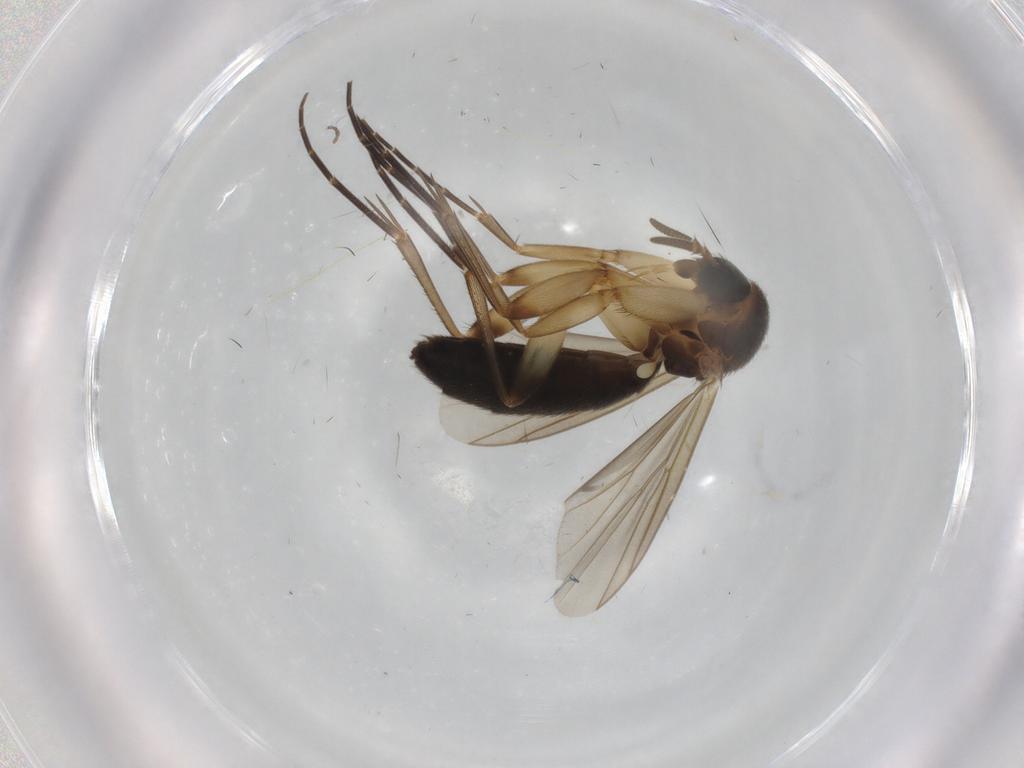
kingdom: Animalia
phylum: Arthropoda
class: Insecta
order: Diptera
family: Mycetophilidae
